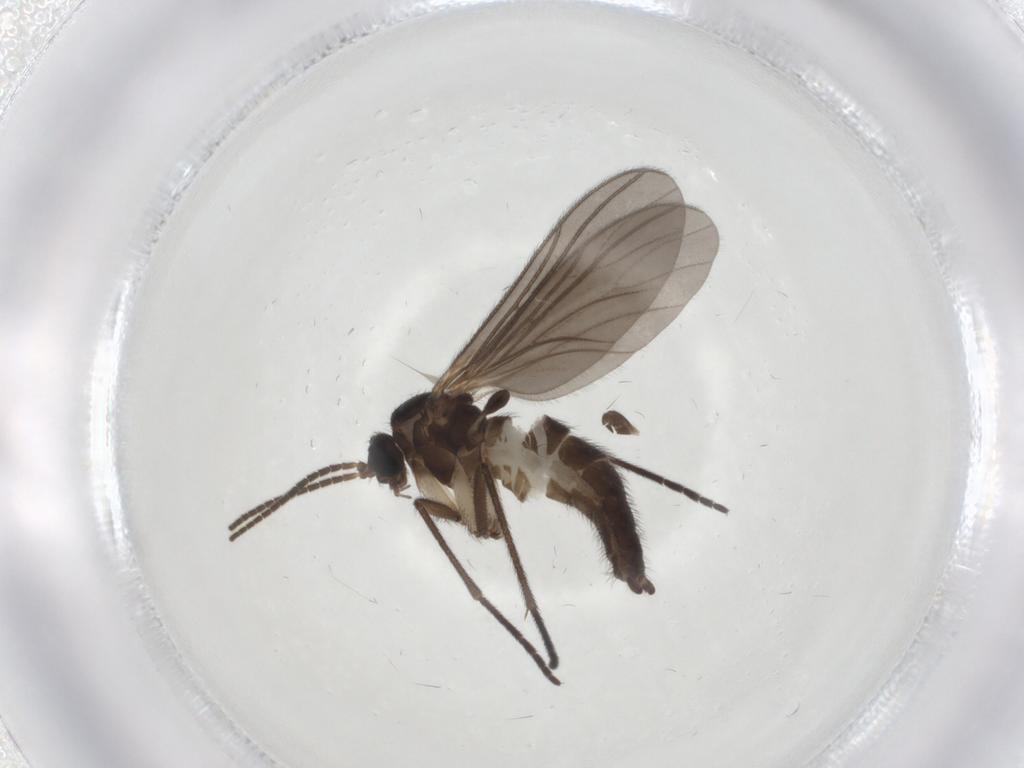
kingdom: Animalia
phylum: Arthropoda
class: Insecta
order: Diptera
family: Sciaridae
